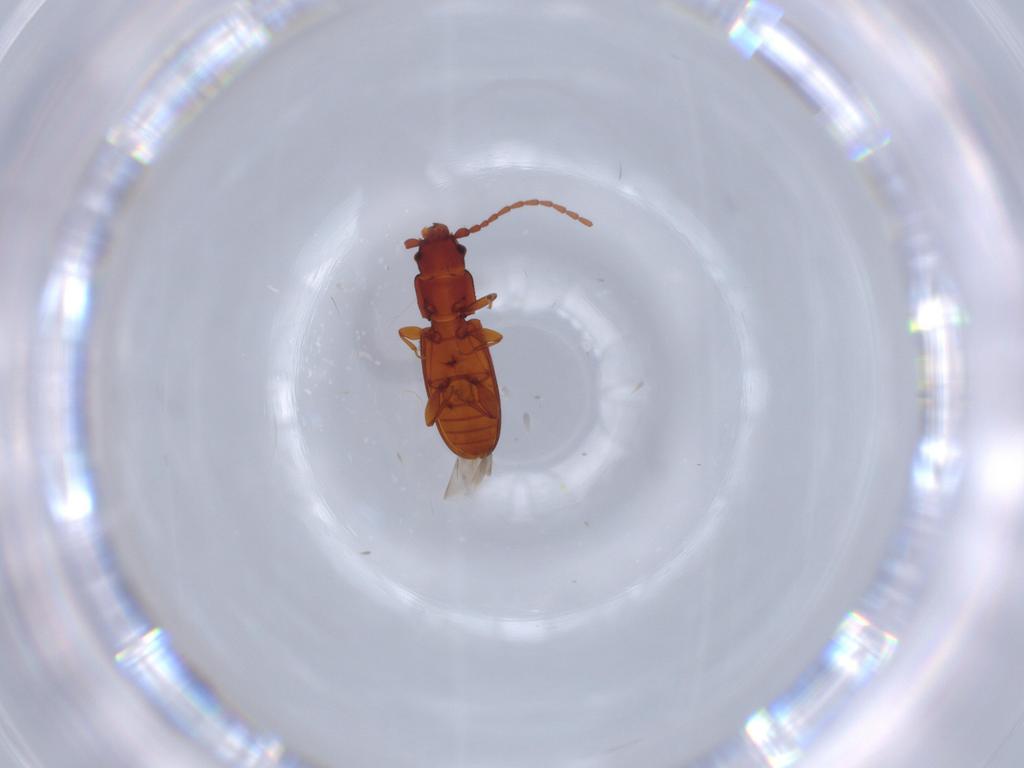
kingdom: Animalia
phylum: Arthropoda
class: Insecta
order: Coleoptera
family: Laemophloeidae
